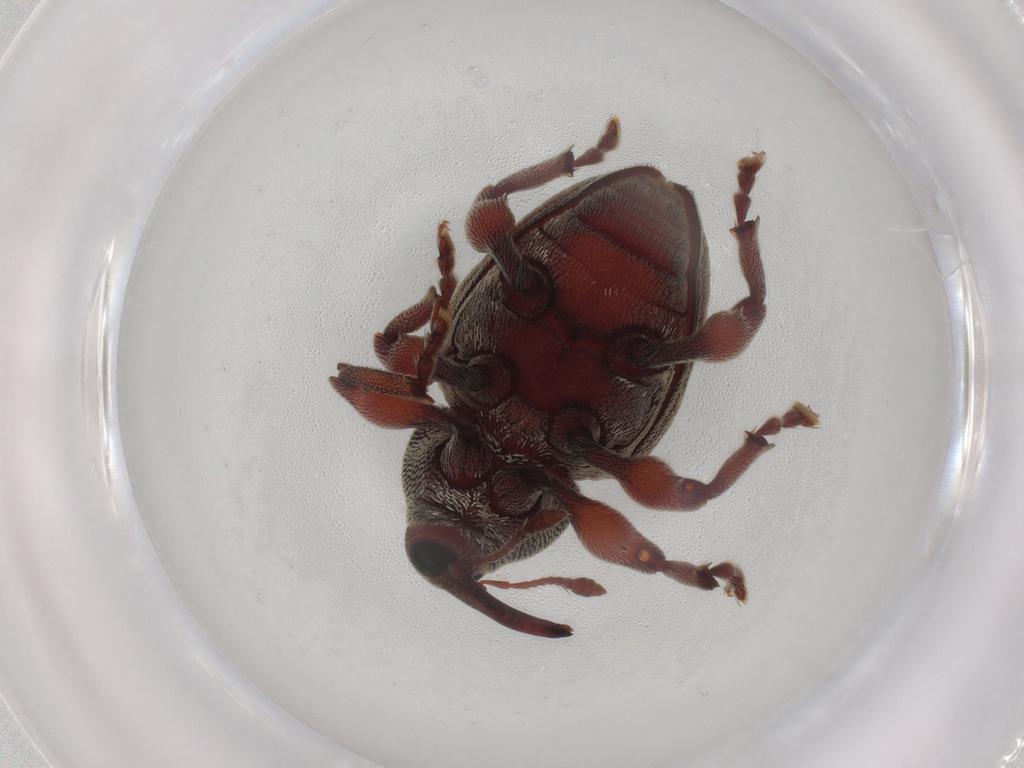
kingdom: Animalia
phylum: Arthropoda
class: Insecta
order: Coleoptera
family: Curculionidae
